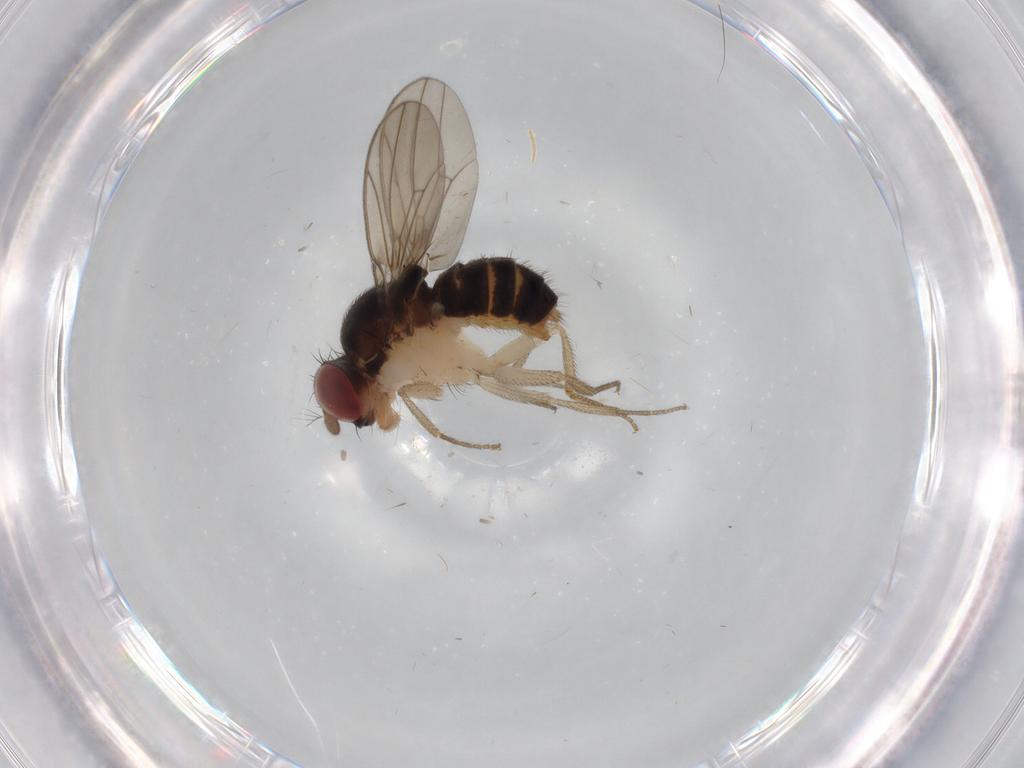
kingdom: Animalia
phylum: Arthropoda
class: Insecta
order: Diptera
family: Drosophilidae
